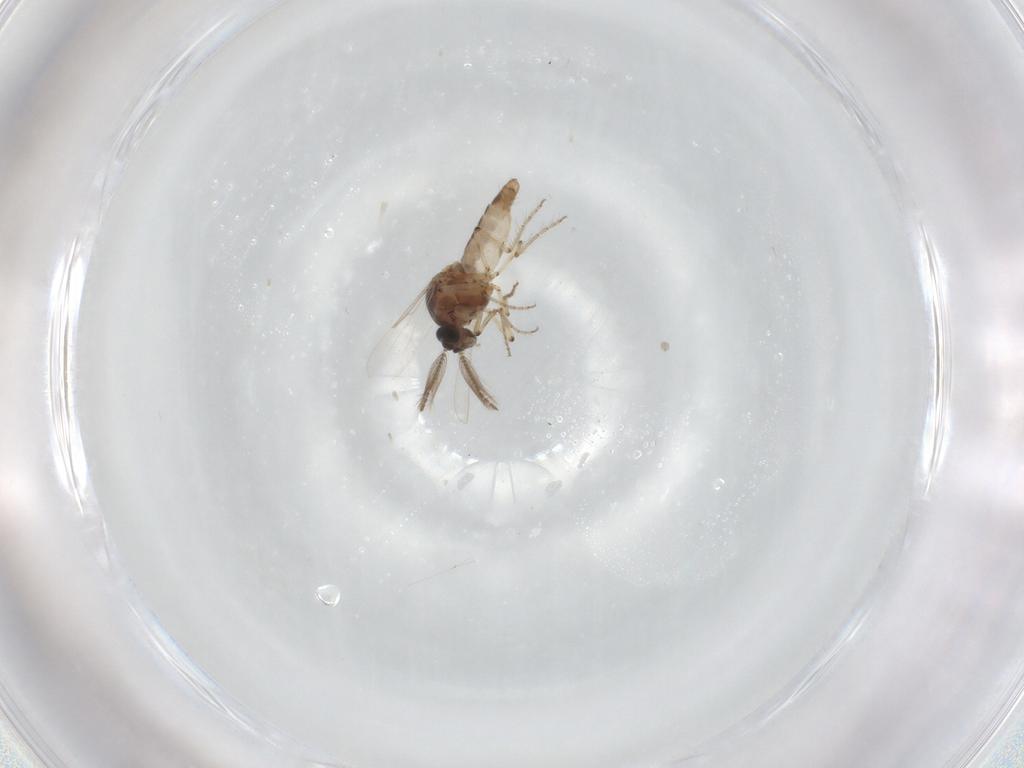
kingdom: Animalia
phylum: Arthropoda
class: Insecta
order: Diptera
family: Ceratopogonidae
